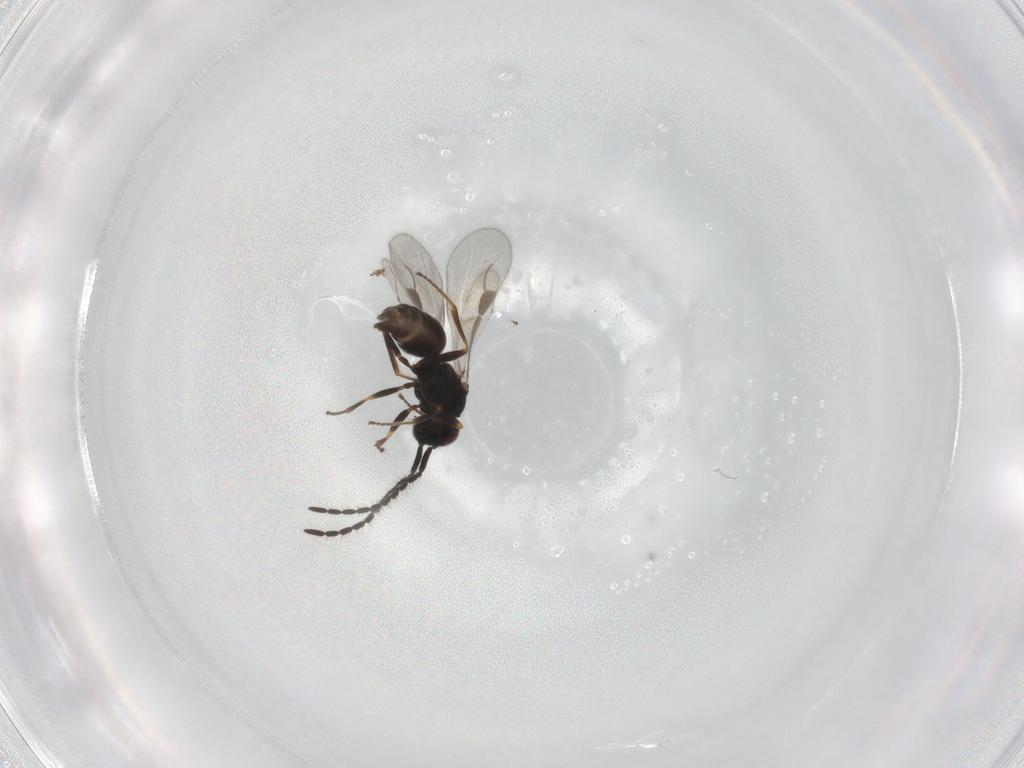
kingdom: Animalia
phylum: Arthropoda
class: Insecta
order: Hymenoptera
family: Megaspilidae
